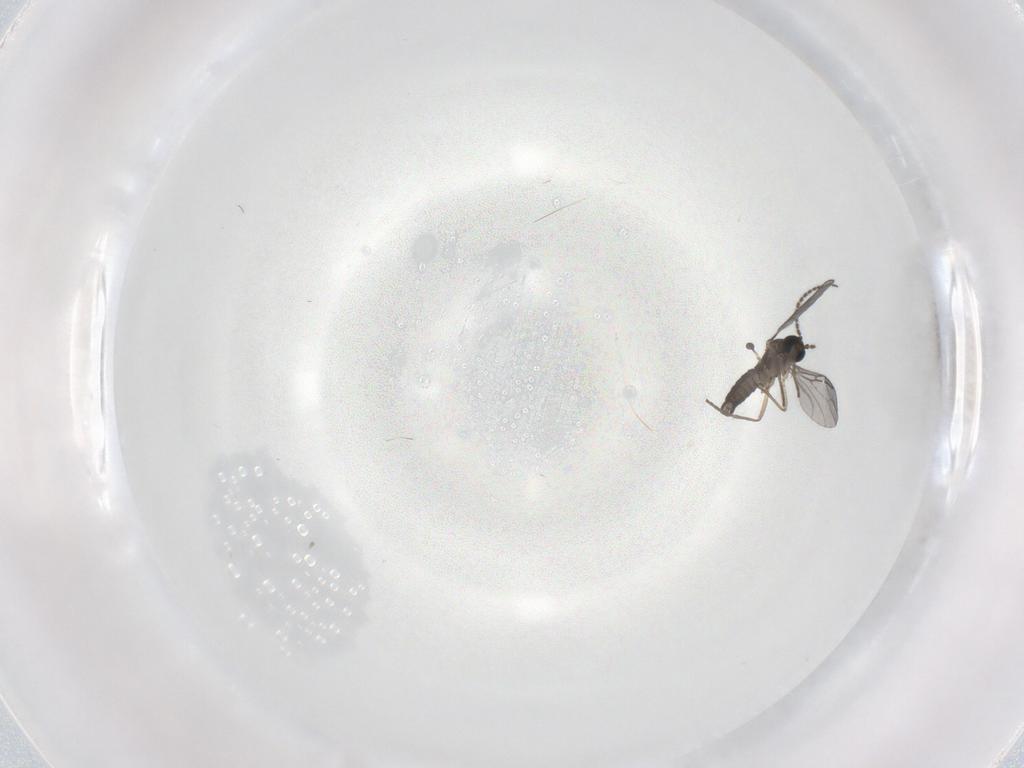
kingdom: Animalia
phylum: Arthropoda
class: Insecta
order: Diptera
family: Sciaridae
